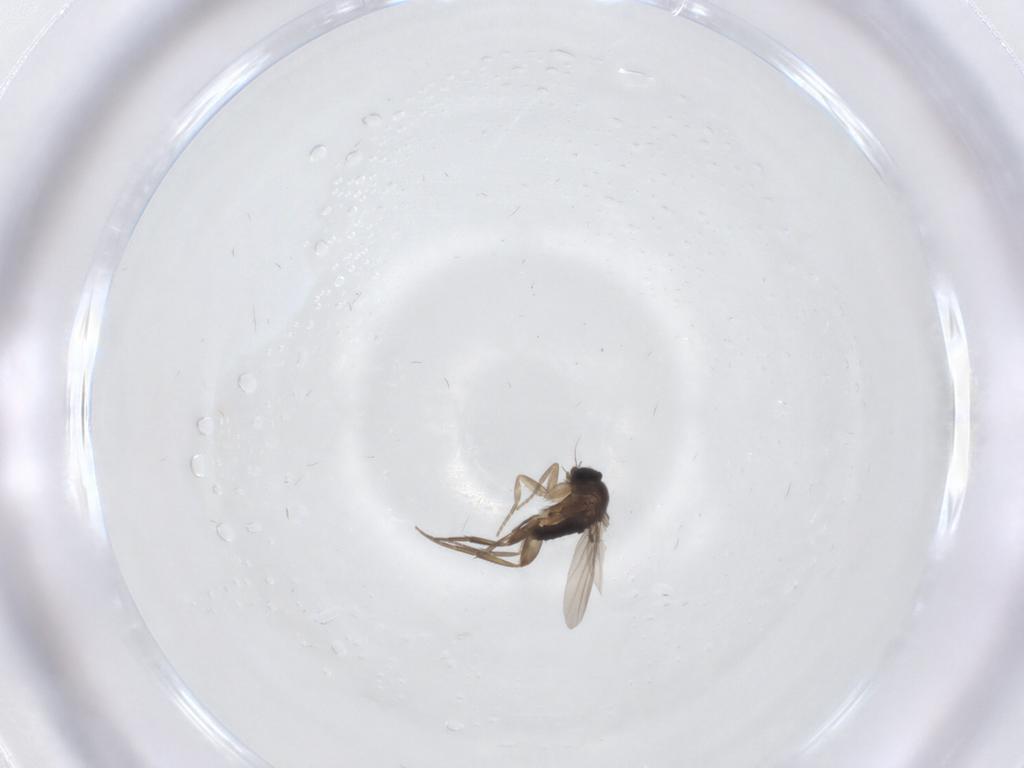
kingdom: Animalia
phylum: Arthropoda
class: Insecta
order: Diptera
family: Phoridae
